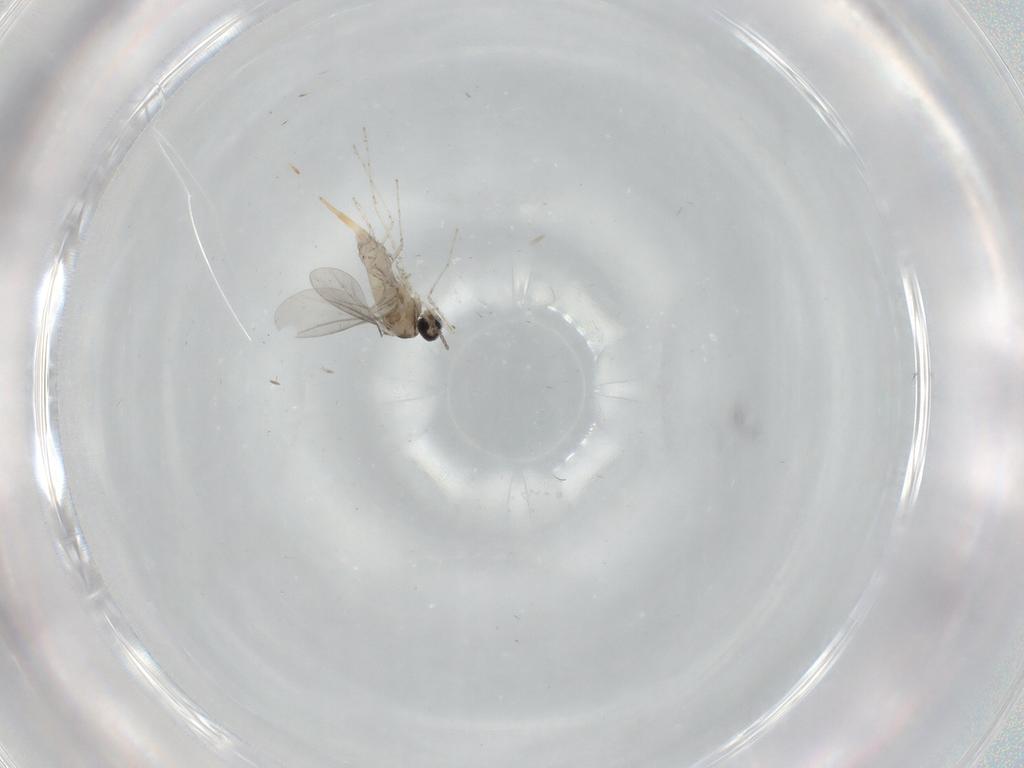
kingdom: Animalia
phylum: Arthropoda
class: Insecta
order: Diptera
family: Cecidomyiidae
